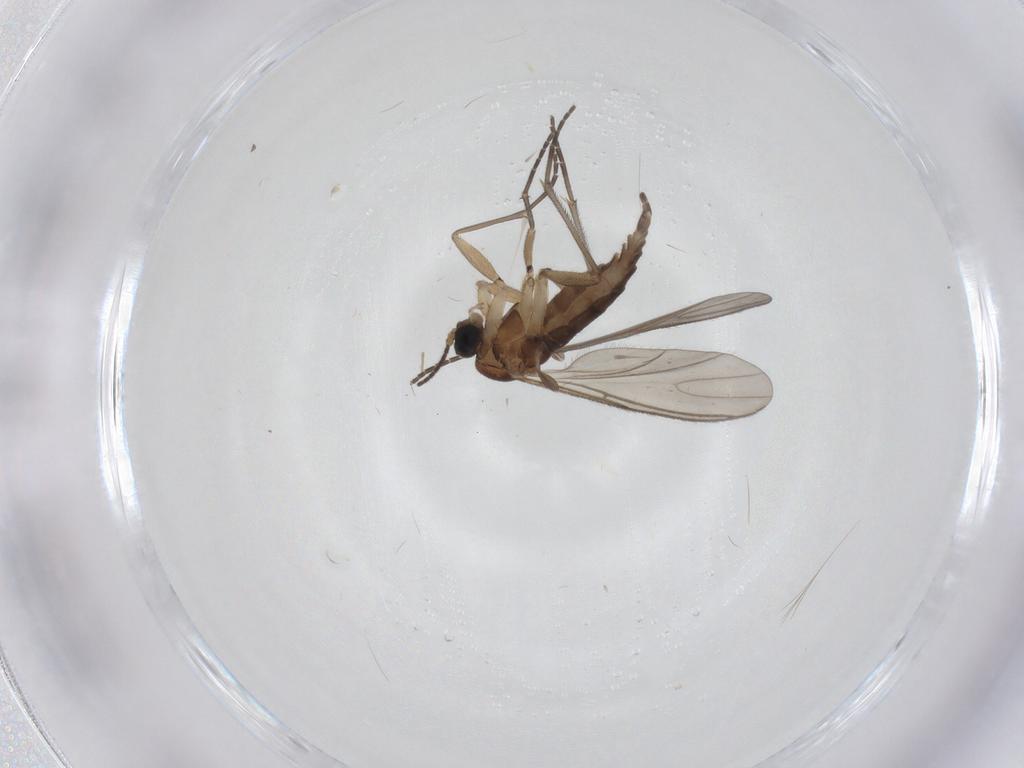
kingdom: Animalia
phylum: Arthropoda
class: Insecta
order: Diptera
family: Sciaridae
